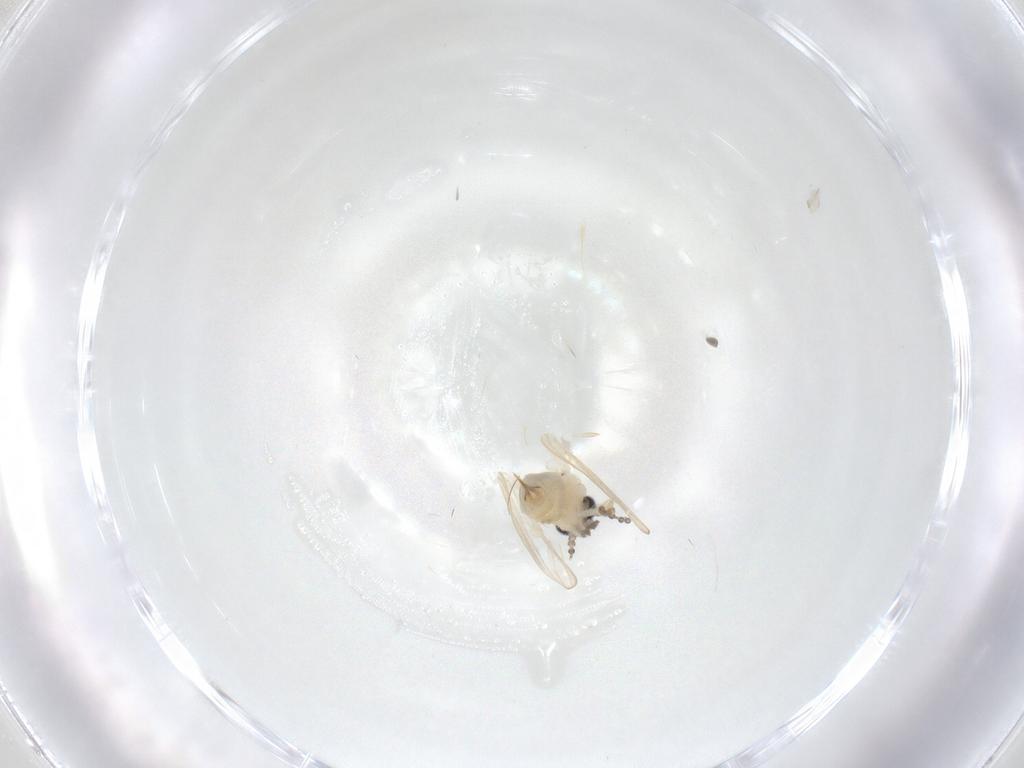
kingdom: Animalia
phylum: Arthropoda
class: Insecta
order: Diptera
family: Psychodidae
